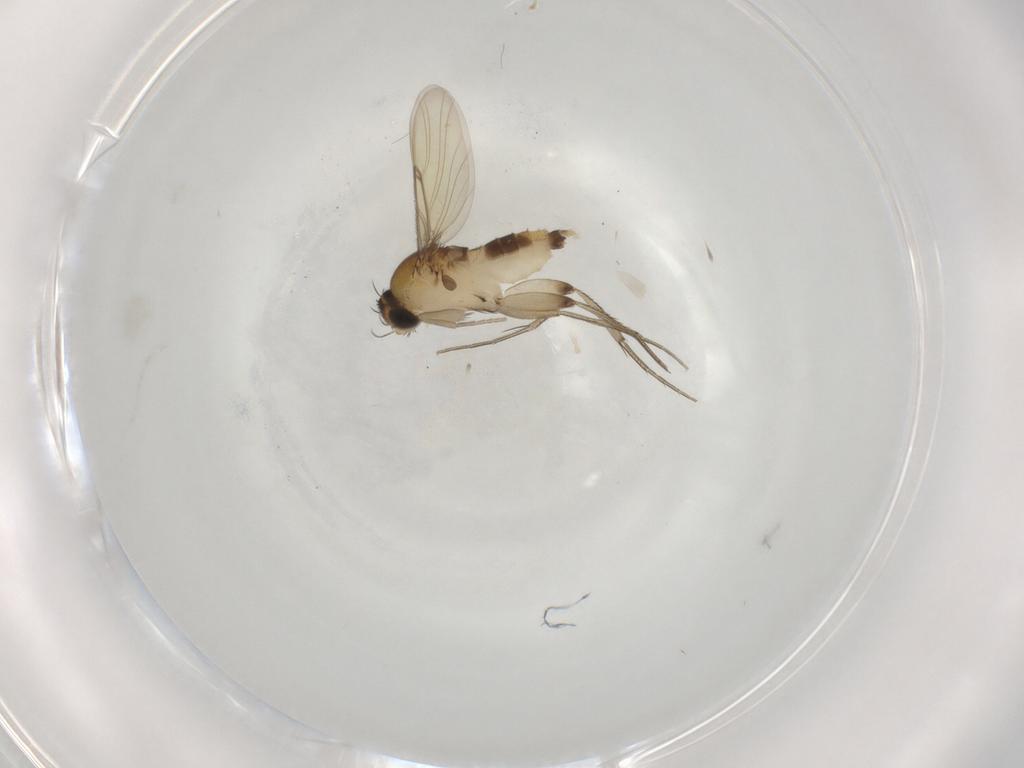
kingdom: Animalia
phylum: Arthropoda
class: Insecta
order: Diptera
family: Phoridae
